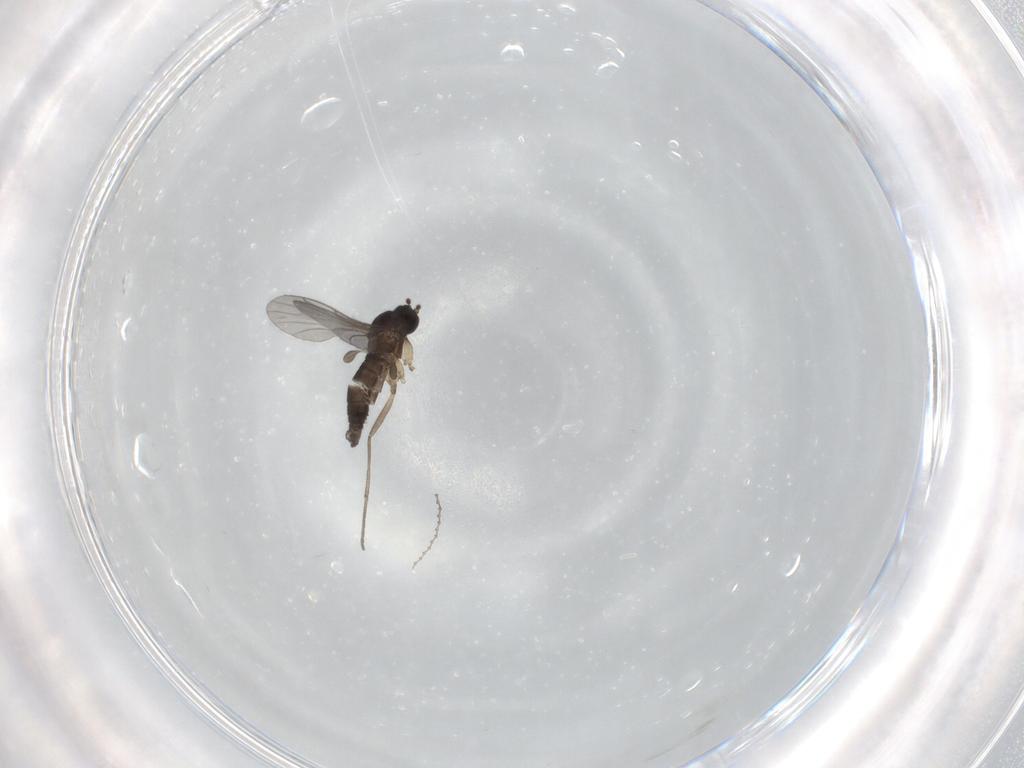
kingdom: Animalia
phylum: Arthropoda
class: Insecta
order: Diptera
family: Sciaridae
